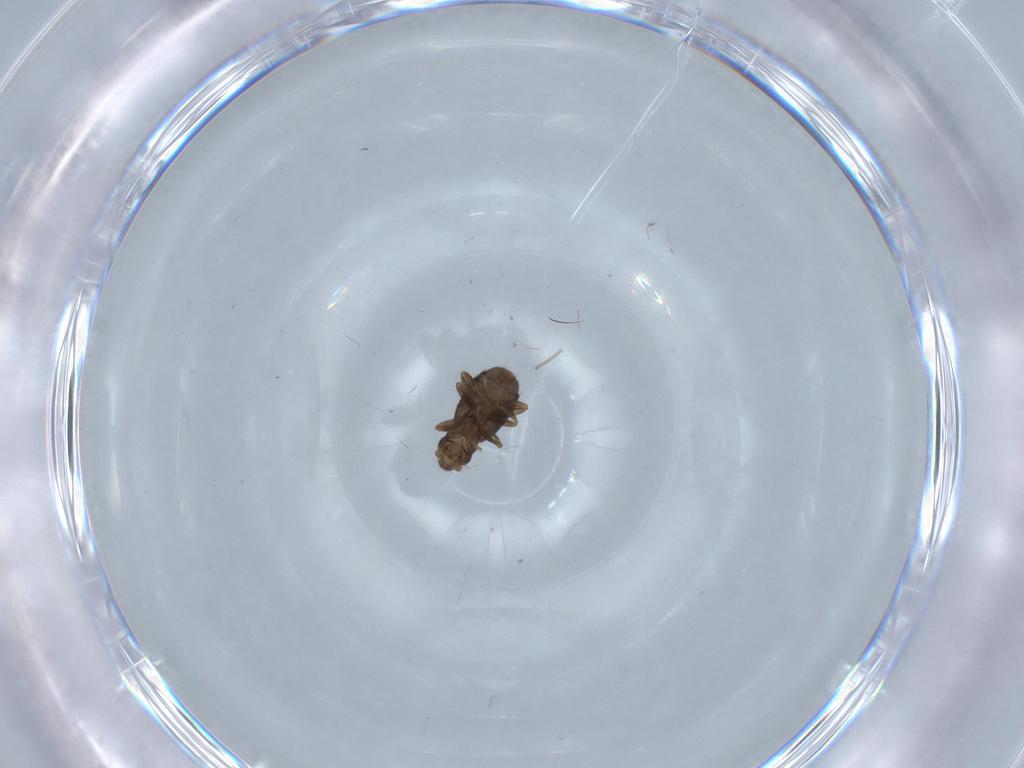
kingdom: Animalia
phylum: Arthropoda
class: Insecta
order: Diptera
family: Chironomidae
